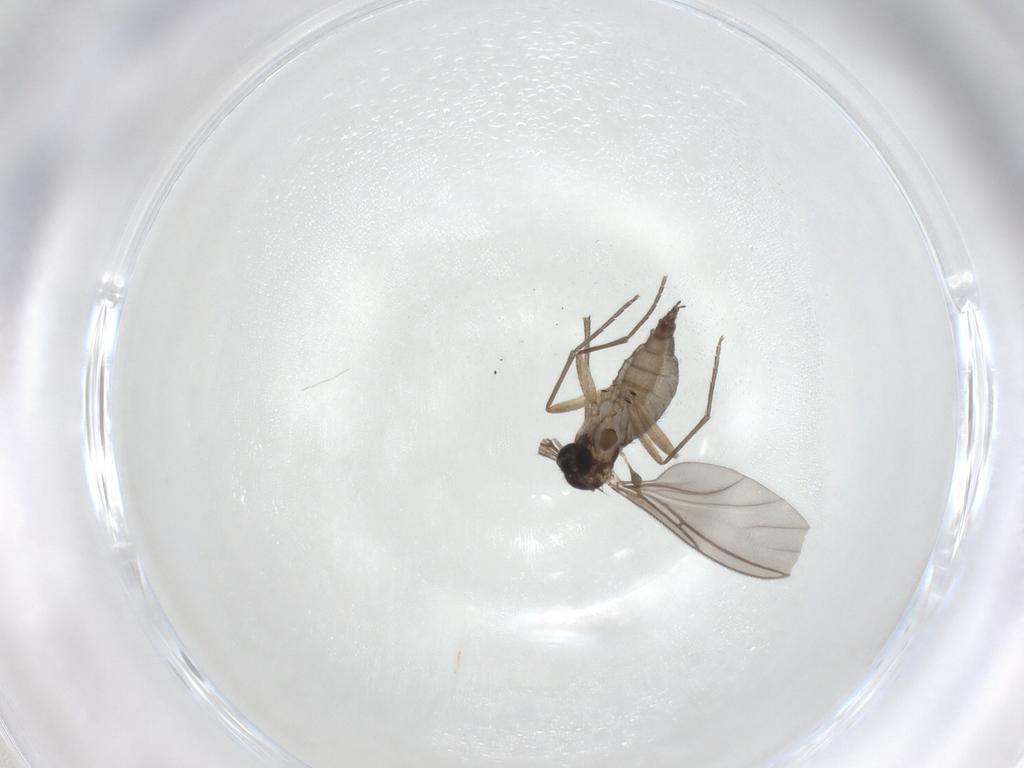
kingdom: Animalia
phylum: Arthropoda
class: Insecta
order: Diptera
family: Sciaridae
